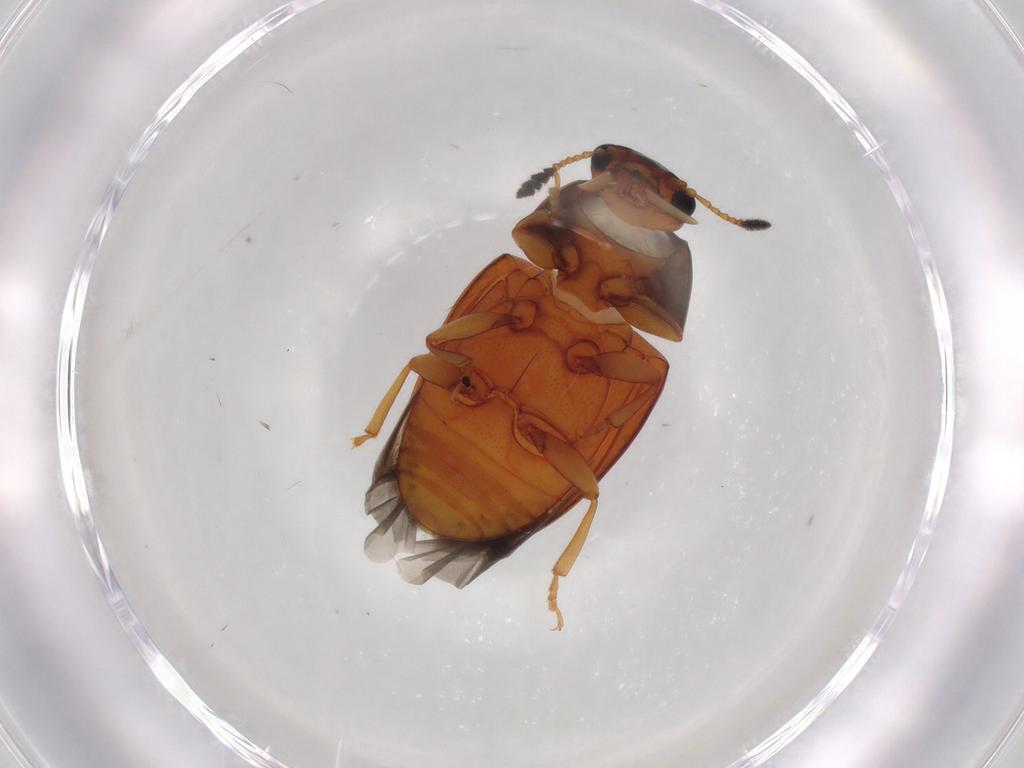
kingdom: Animalia
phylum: Arthropoda
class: Insecta
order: Coleoptera
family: Erotylidae
